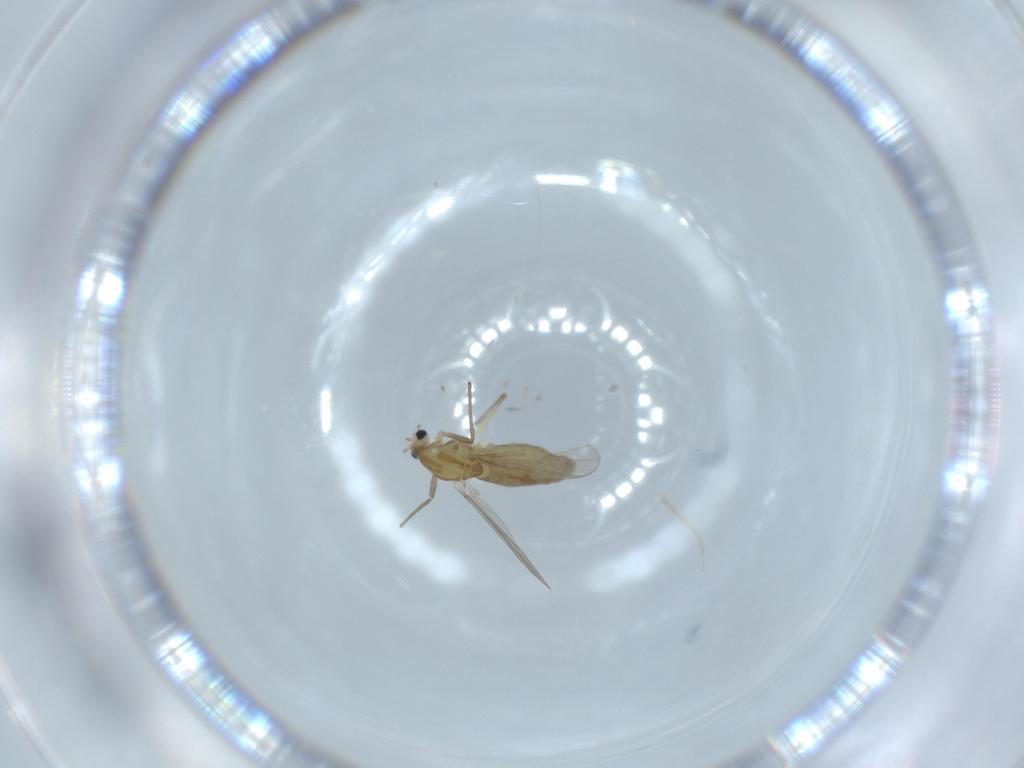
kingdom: Animalia
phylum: Arthropoda
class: Insecta
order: Diptera
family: Chironomidae
